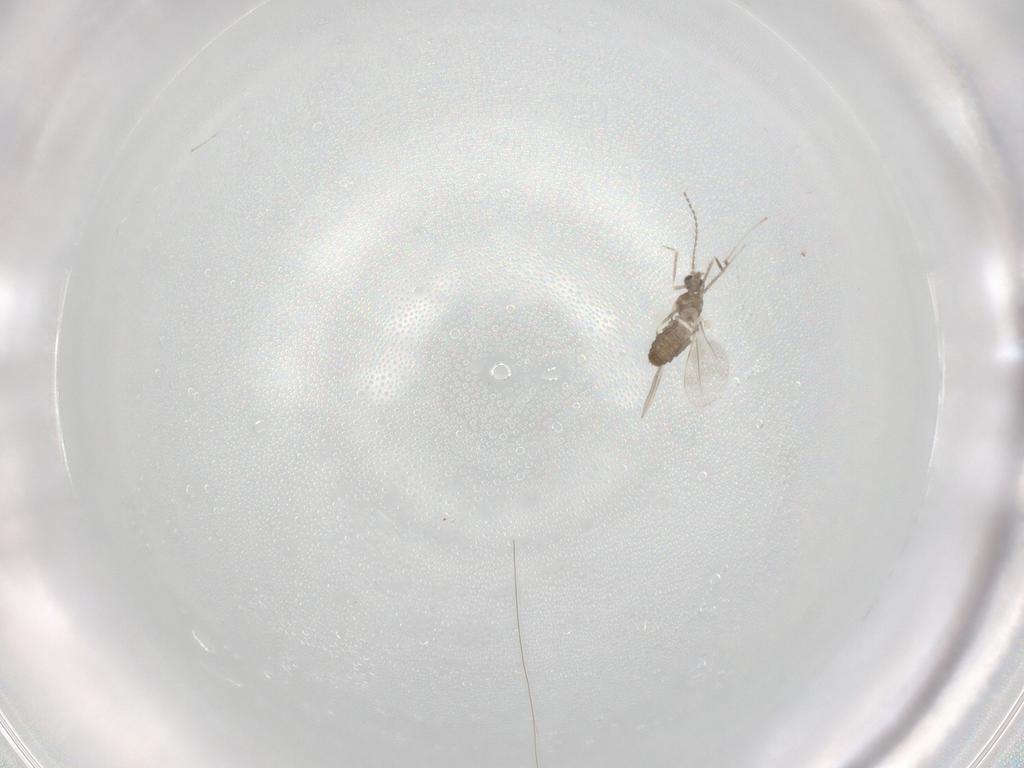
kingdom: Animalia
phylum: Arthropoda
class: Insecta
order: Diptera
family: Cecidomyiidae
